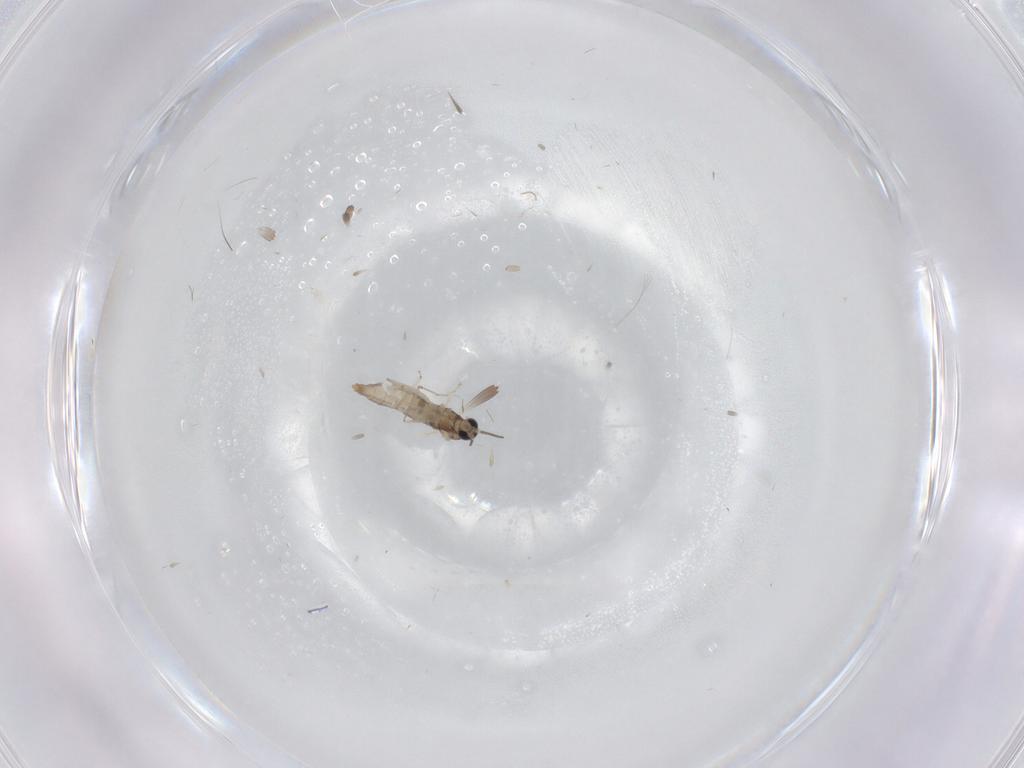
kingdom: Animalia
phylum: Arthropoda
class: Insecta
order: Diptera
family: Chironomidae
